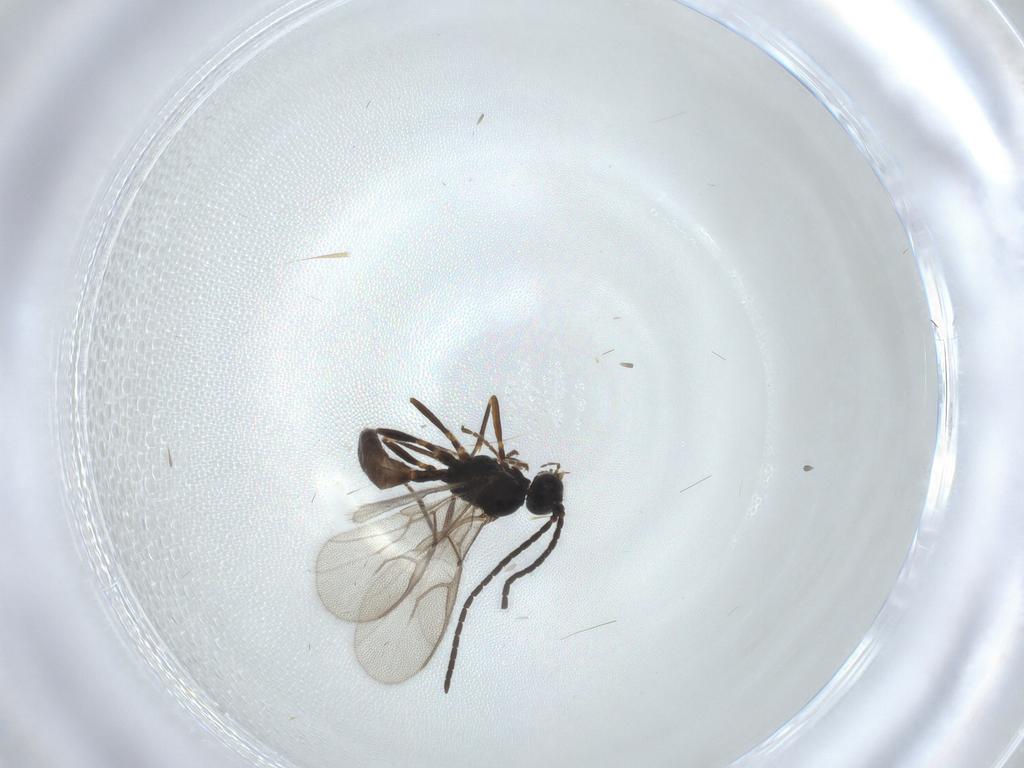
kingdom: Animalia
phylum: Arthropoda
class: Insecta
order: Hymenoptera
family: Braconidae
